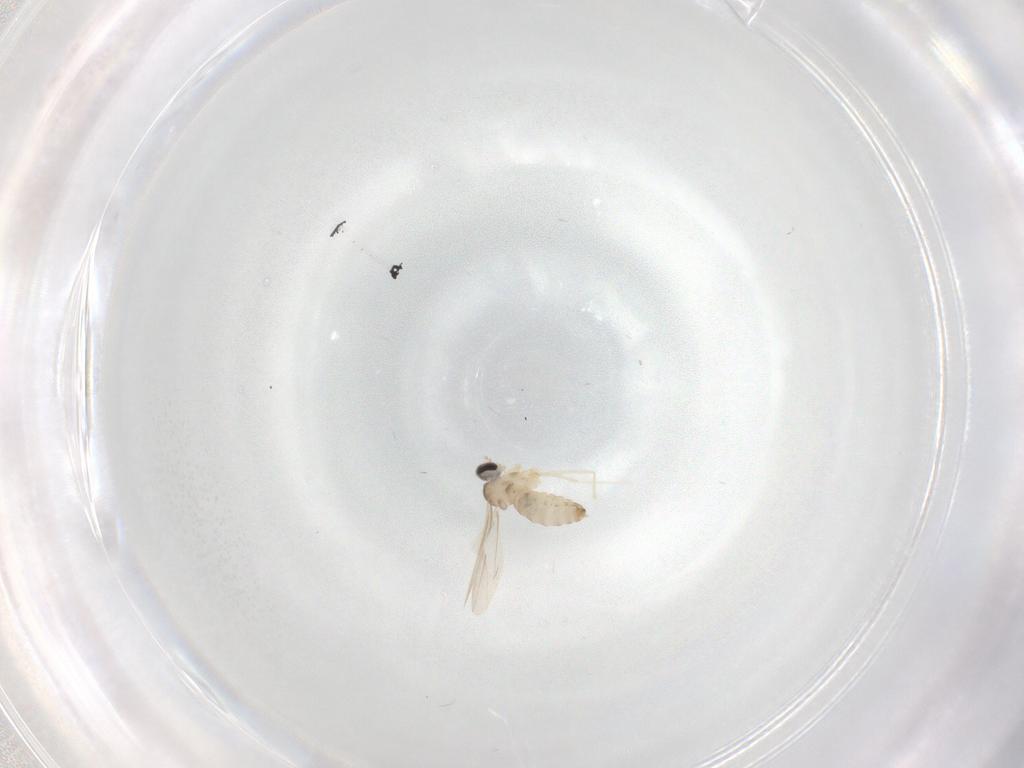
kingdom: Animalia
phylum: Arthropoda
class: Insecta
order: Diptera
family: Cecidomyiidae
